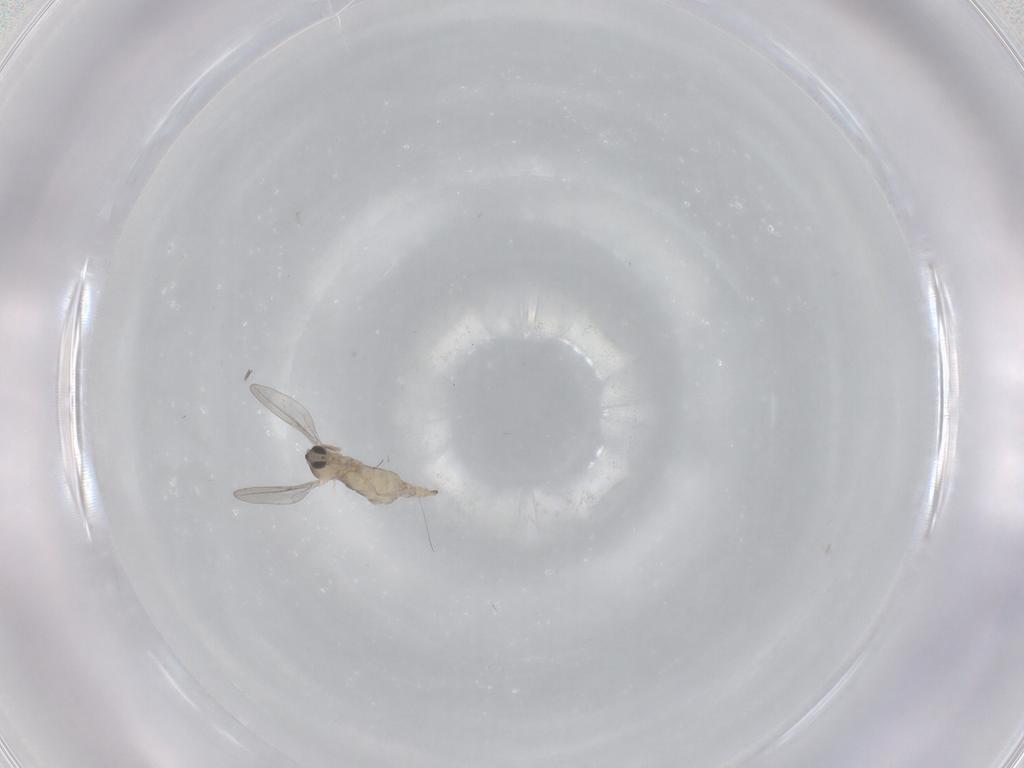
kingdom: Animalia
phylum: Arthropoda
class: Insecta
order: Diptera
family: Cecidomyiidae
